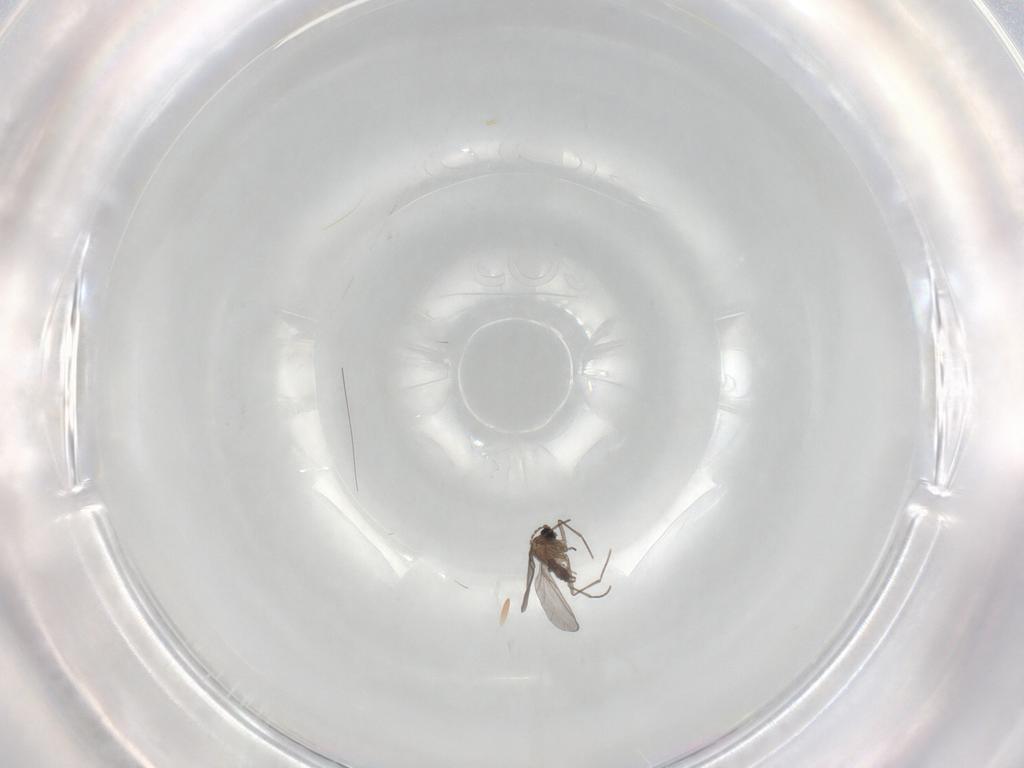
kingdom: Animalia
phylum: Arthropoda
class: Insecta
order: Diptera
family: Sciaridae
